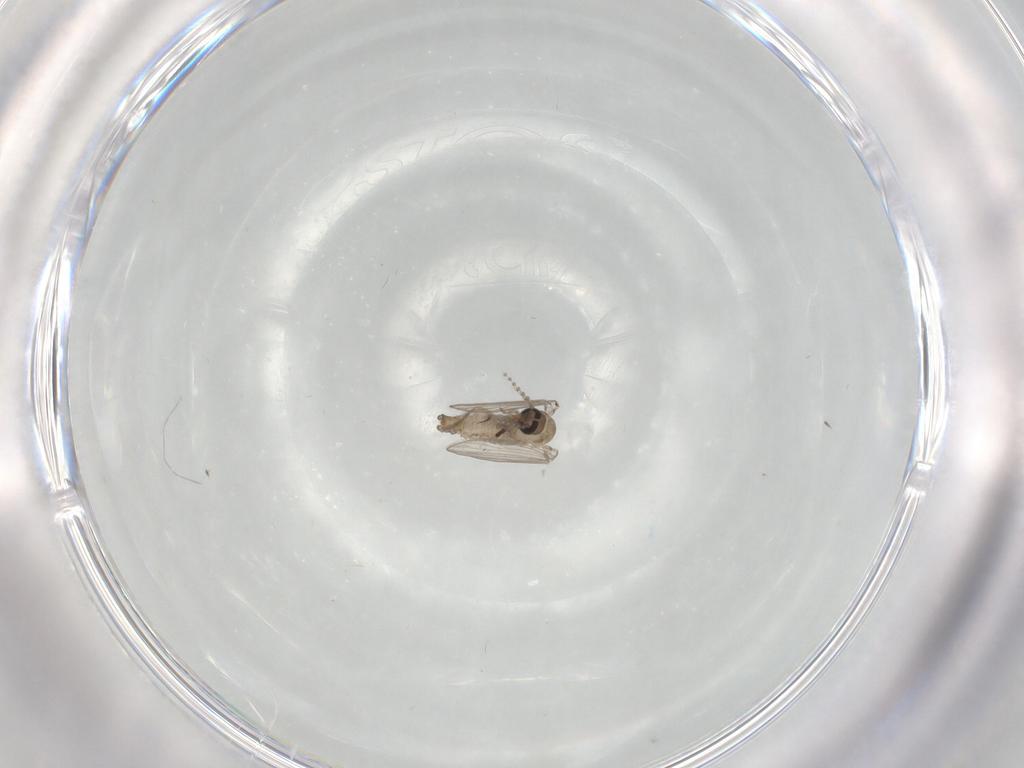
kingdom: Animalia
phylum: Arthropoda
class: Insecta
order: Diptera
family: Psychodidae
